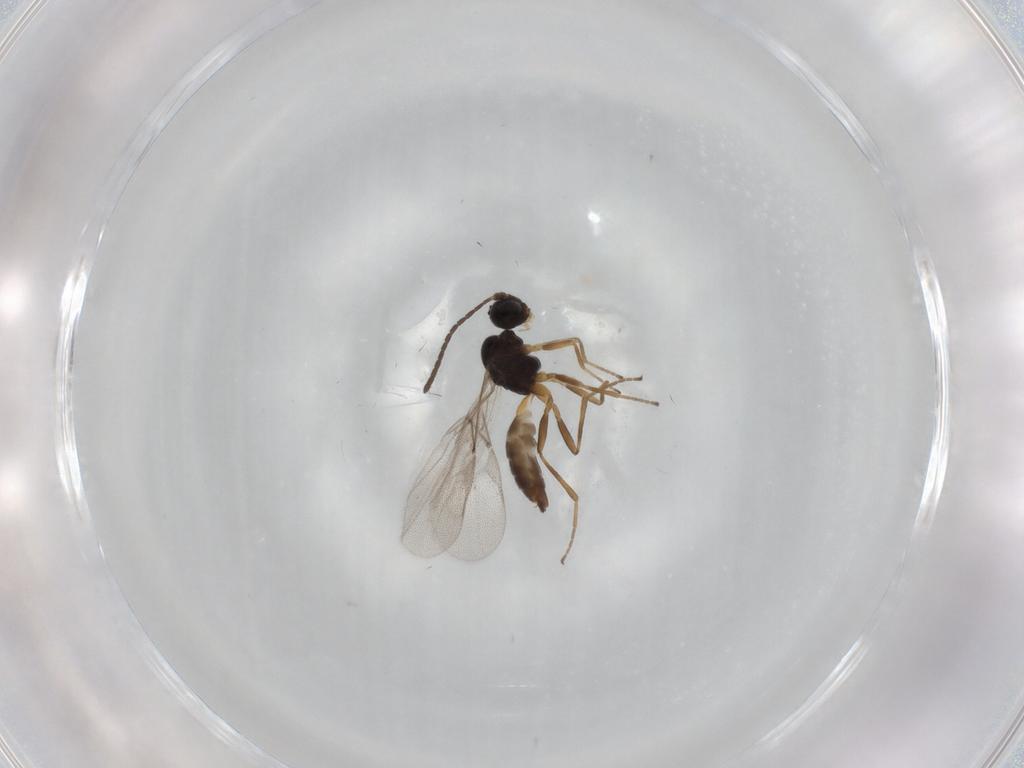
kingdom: Animalia
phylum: Arthropoda
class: Insecta
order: Hymenoptera
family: Braconidae
